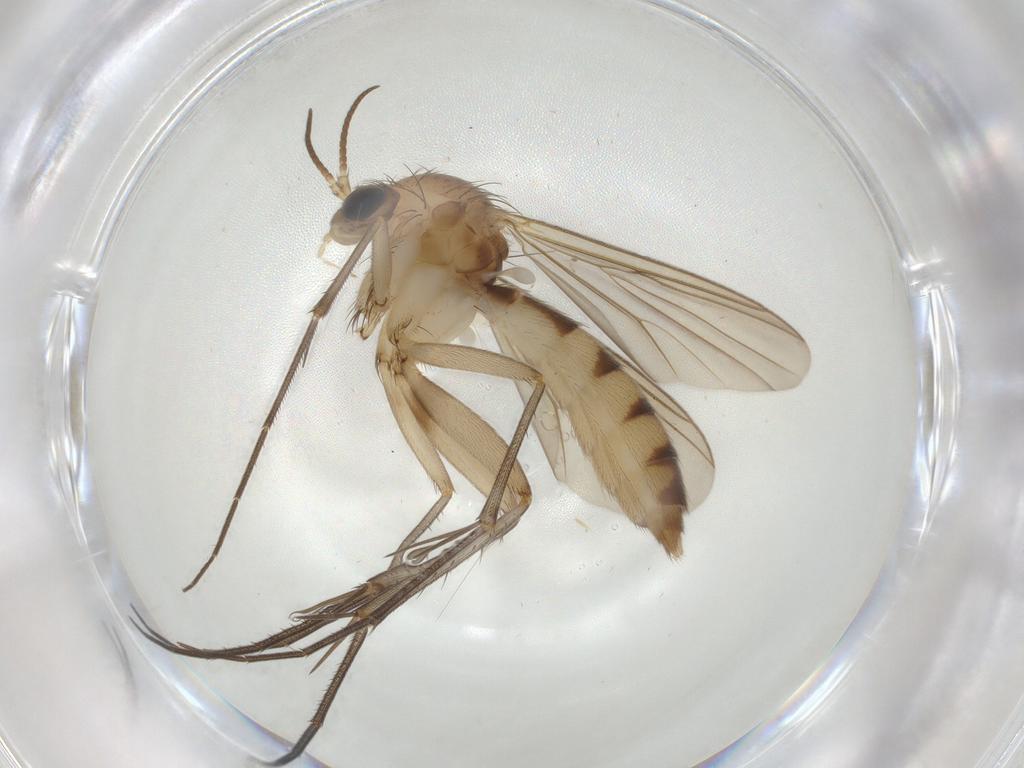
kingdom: Animalia
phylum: Arthropoda
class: Insecta
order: Diptera
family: Mycetophilidae
